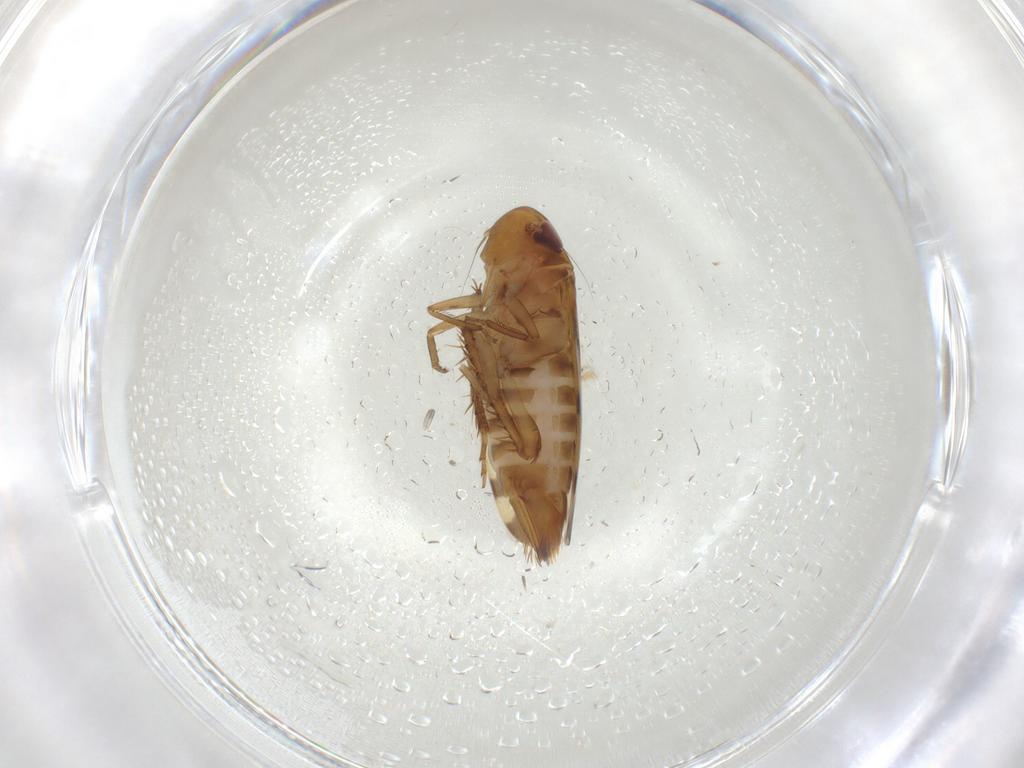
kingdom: Animalia
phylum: Arthropoda
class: Insecta
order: Hemiptera
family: Cicadellidae
